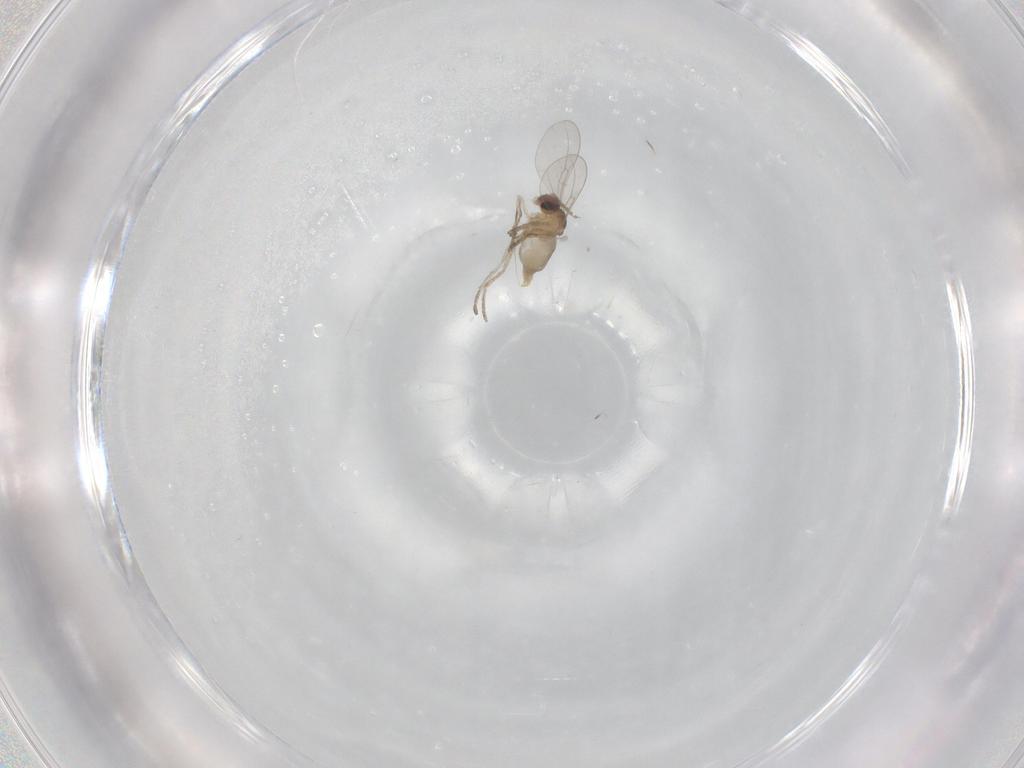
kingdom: Animalia
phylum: Arthropoda
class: Insecta
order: Diptera
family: Cecidomyiidae
